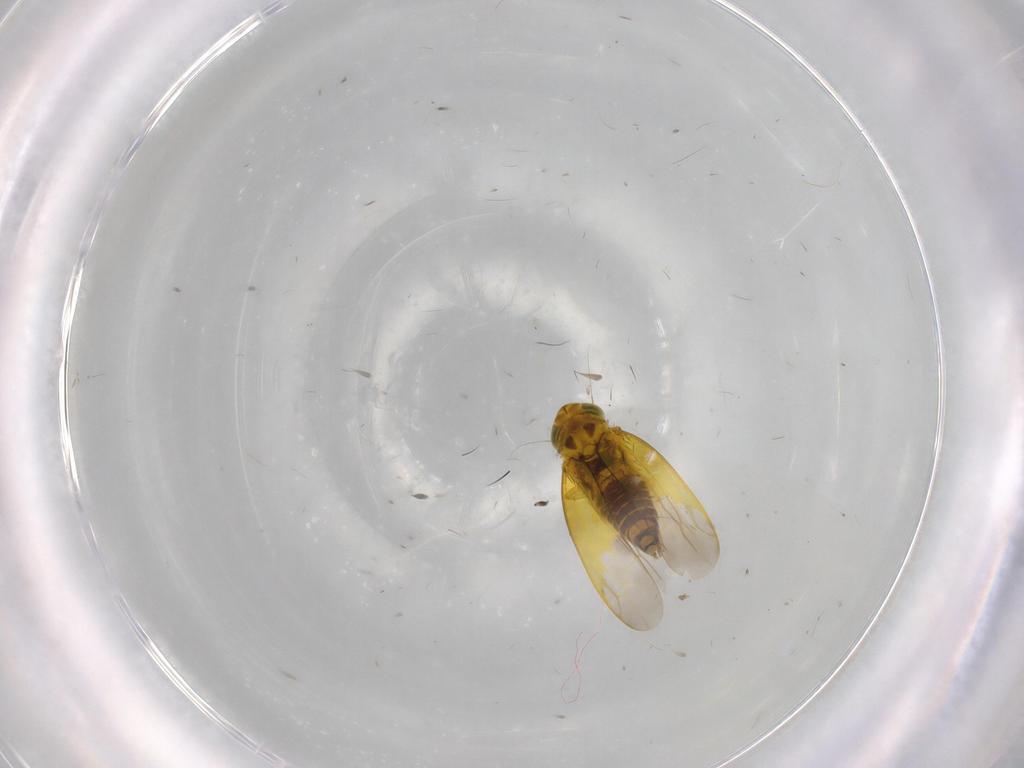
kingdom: Animalia
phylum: Arthropoda
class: Insecta
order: Hemiptera
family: Cicadellidae
